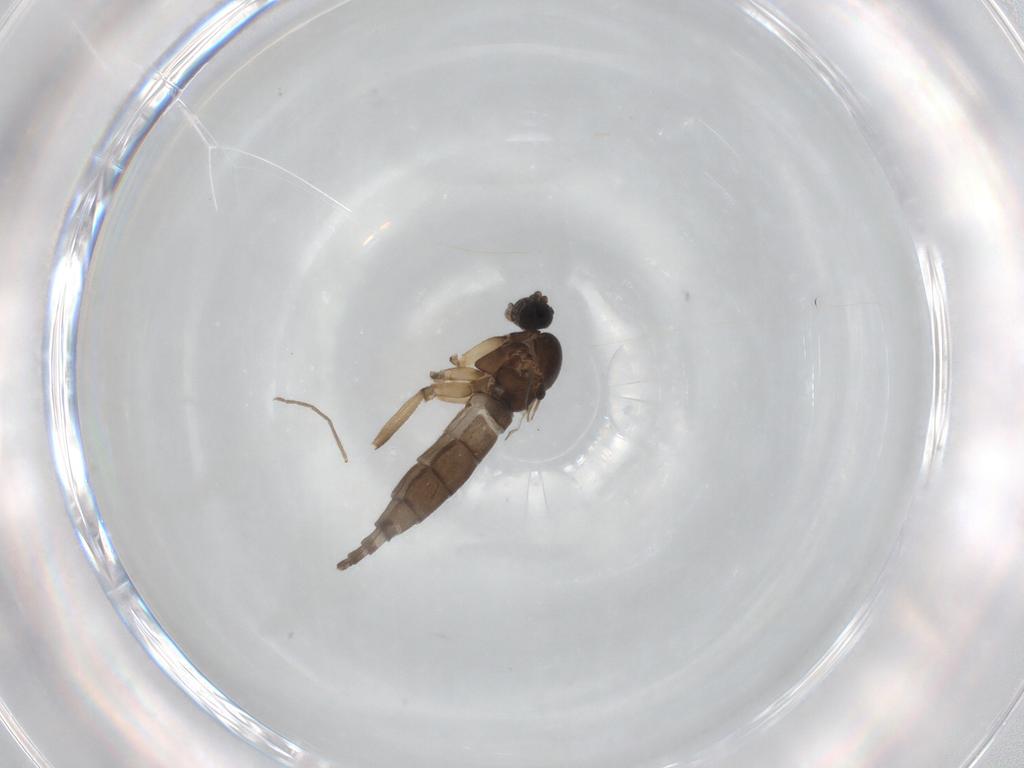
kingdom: Animalia
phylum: Arthropoda
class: Insecta
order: Diptera
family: Sciaridae
